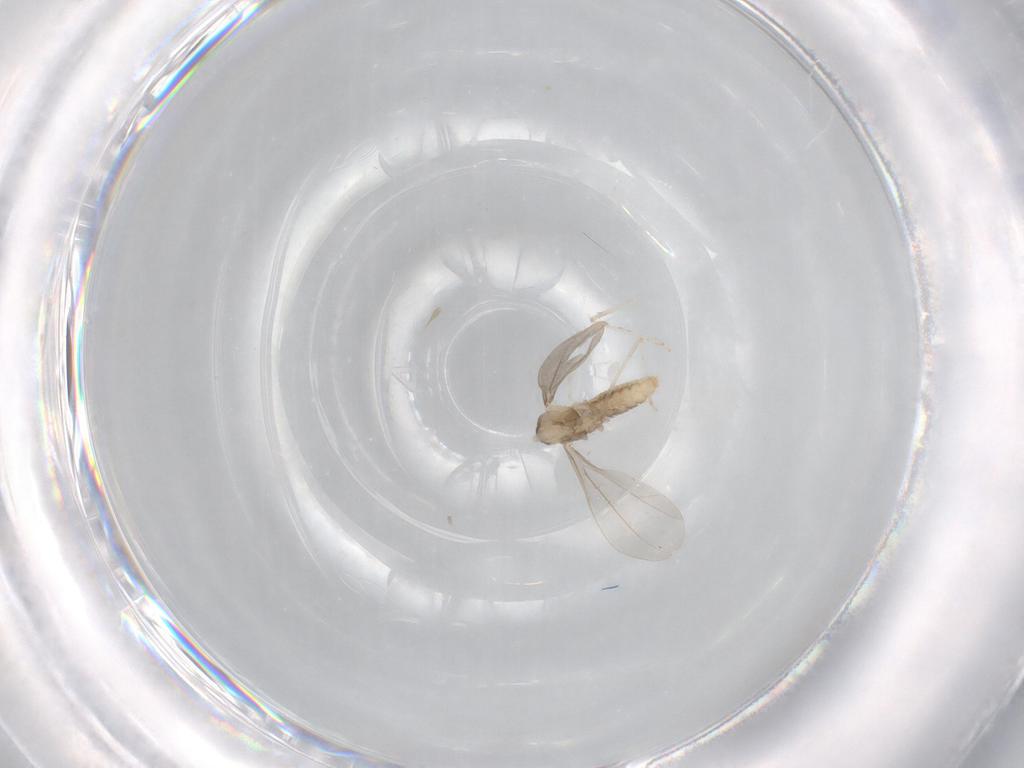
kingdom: Animalia
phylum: Arthropoda
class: Insecta
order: Diptera
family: Cecidomyiidae
